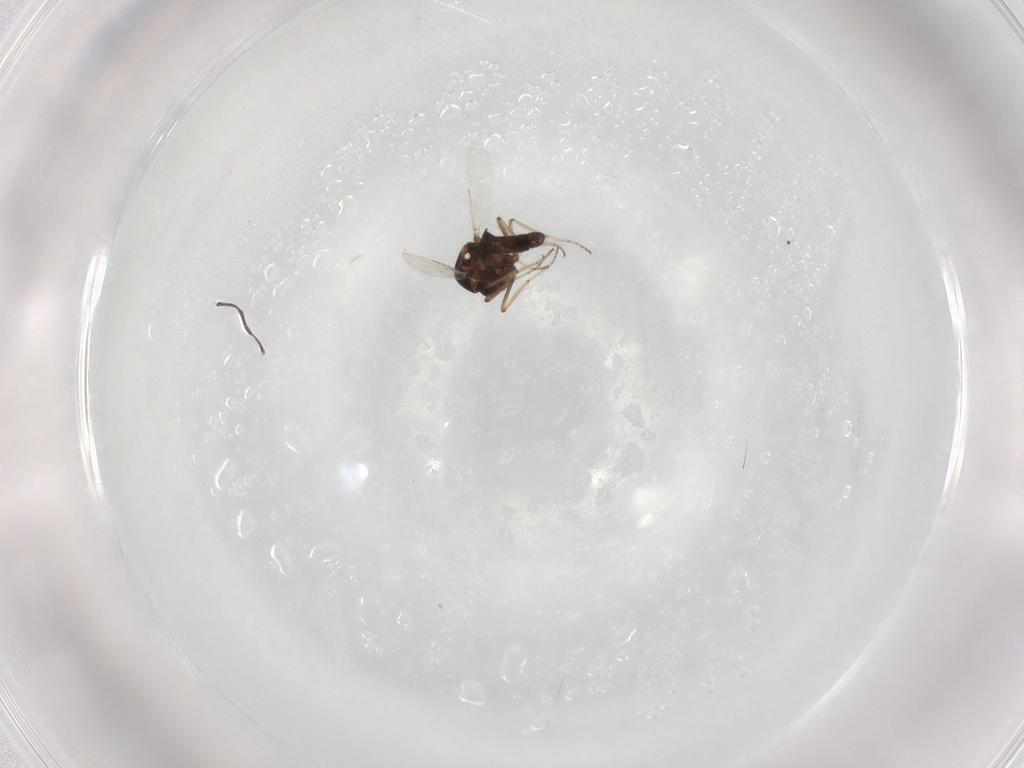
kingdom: Animalia
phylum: Arthropoda
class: Insecta
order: Diptera
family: Ceratopogonidae
